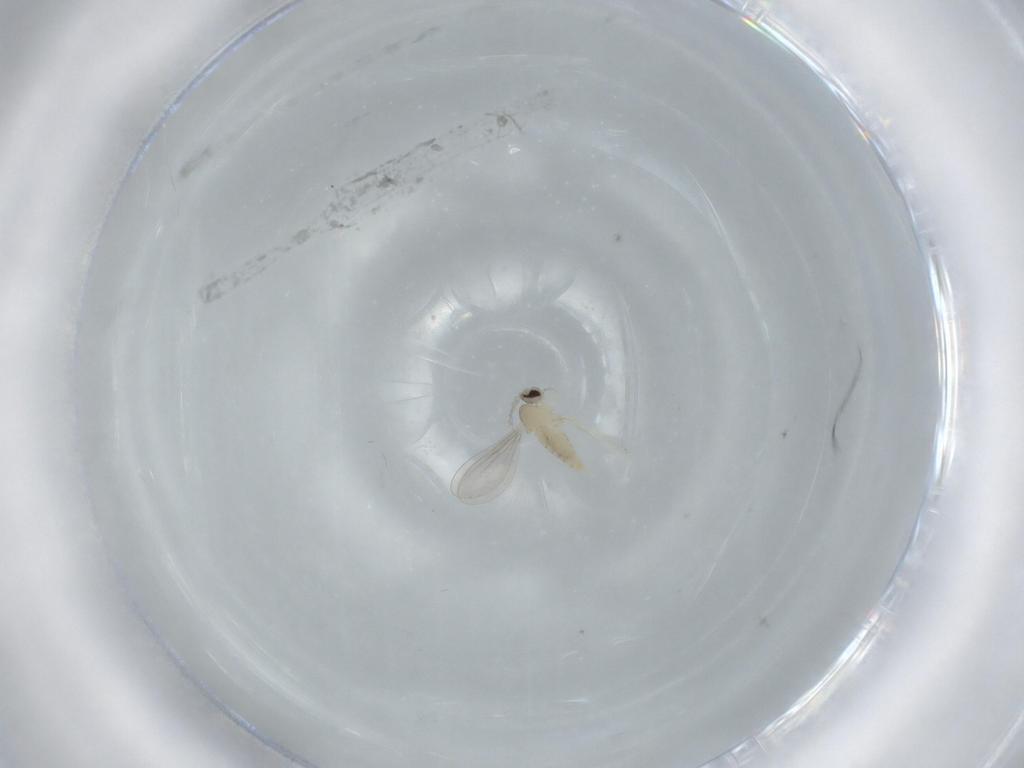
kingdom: Animalia
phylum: Arthropoda
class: Insecta
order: Diptera
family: Cecidomyiidae
